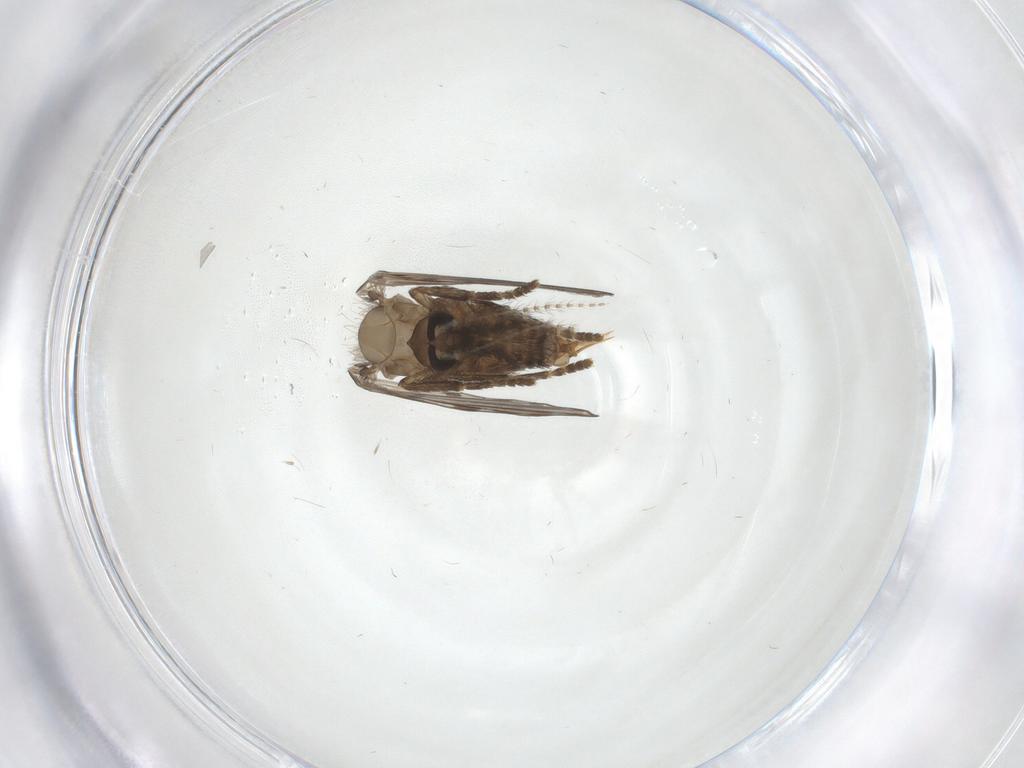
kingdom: Animalia
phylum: Arthropoda
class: Insecta
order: Diptera
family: Psychodidae
